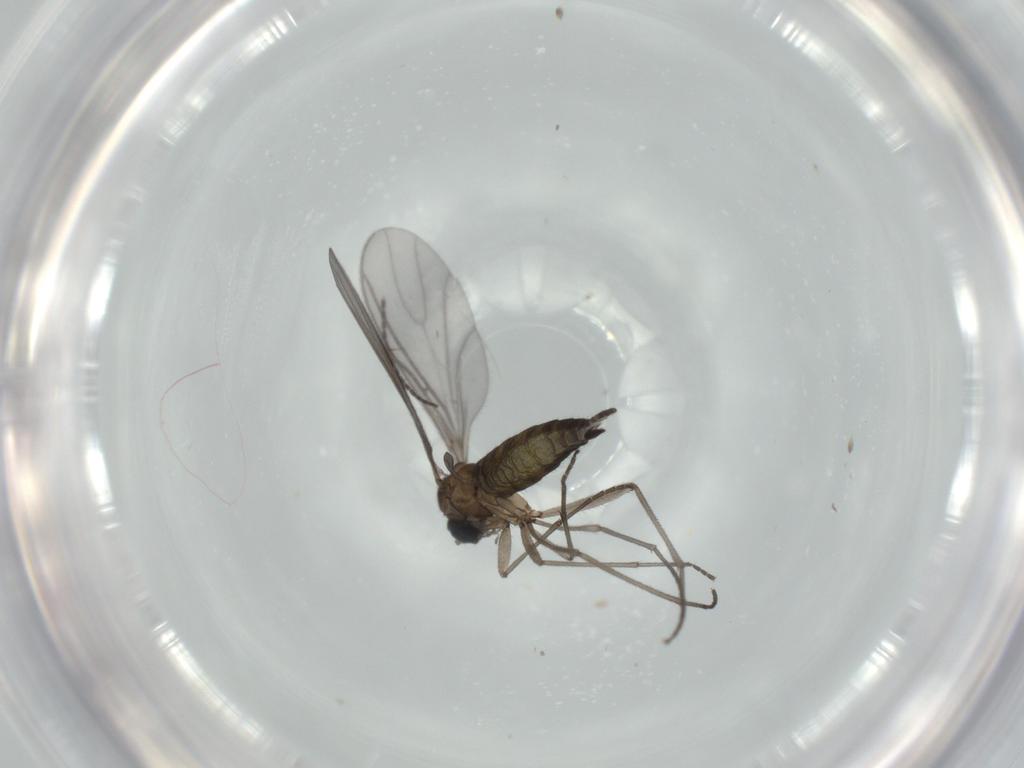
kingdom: Animalia
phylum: Arthropoda
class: Insecta
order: Diptera
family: Sciaridae
